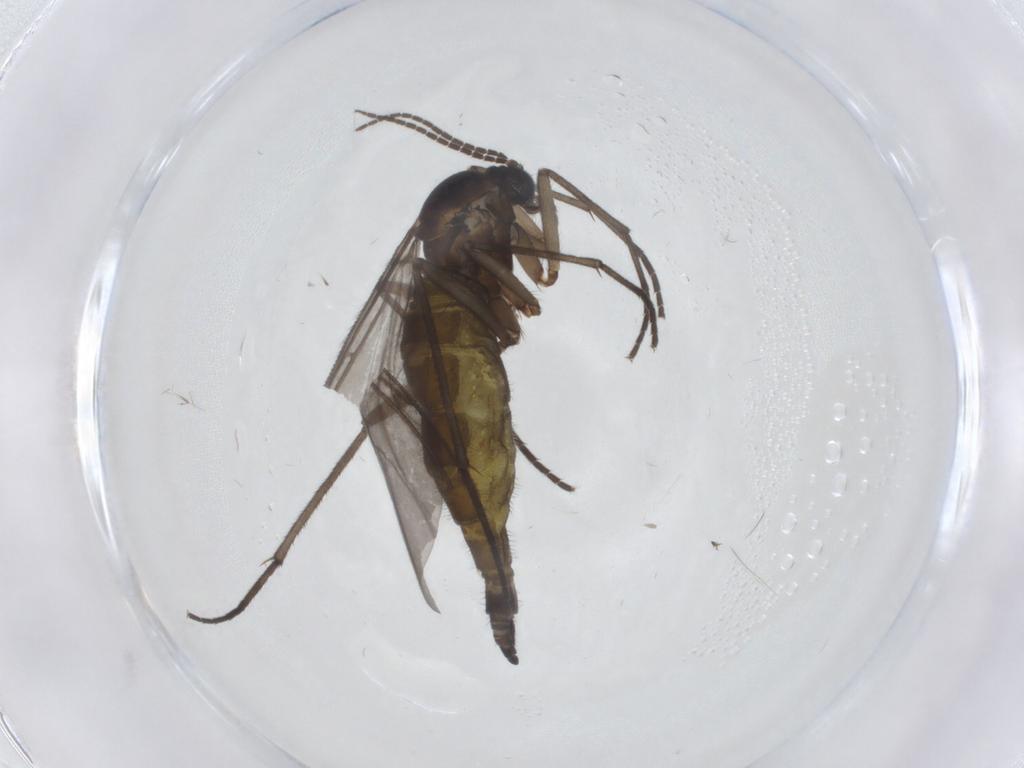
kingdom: Animalia
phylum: Arthropoda
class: Insecta
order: Diptera
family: Sciaridae
